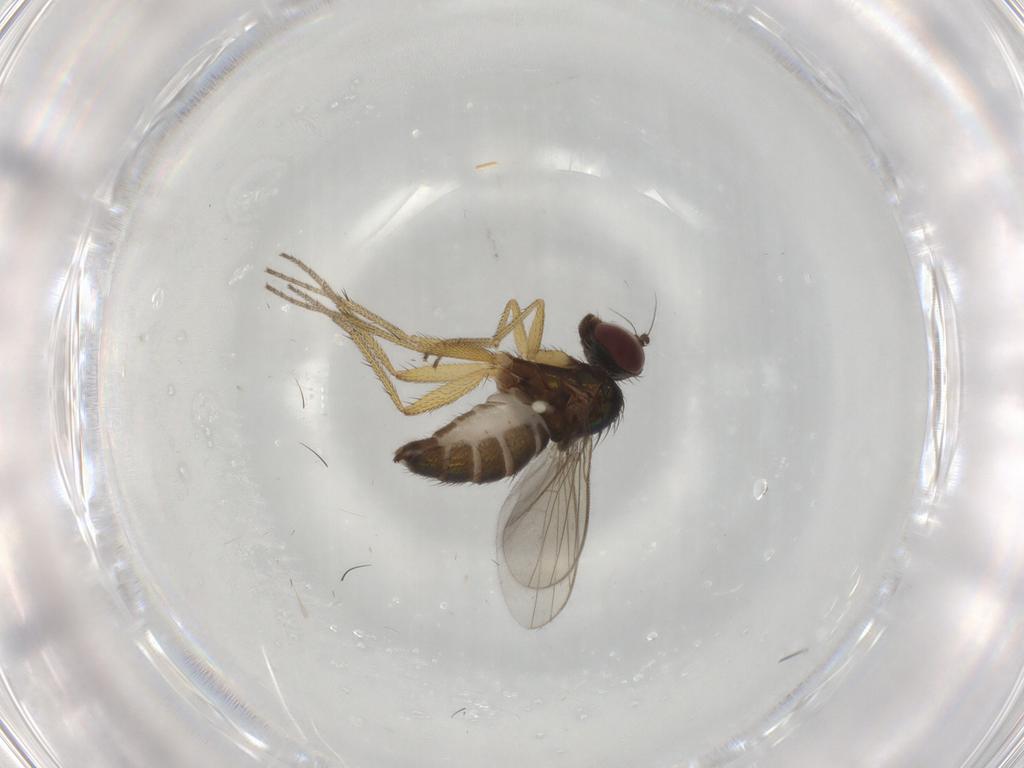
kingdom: Animalia
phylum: Arthropoda
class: Insecta
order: Diptera
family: Dolichopodidae
